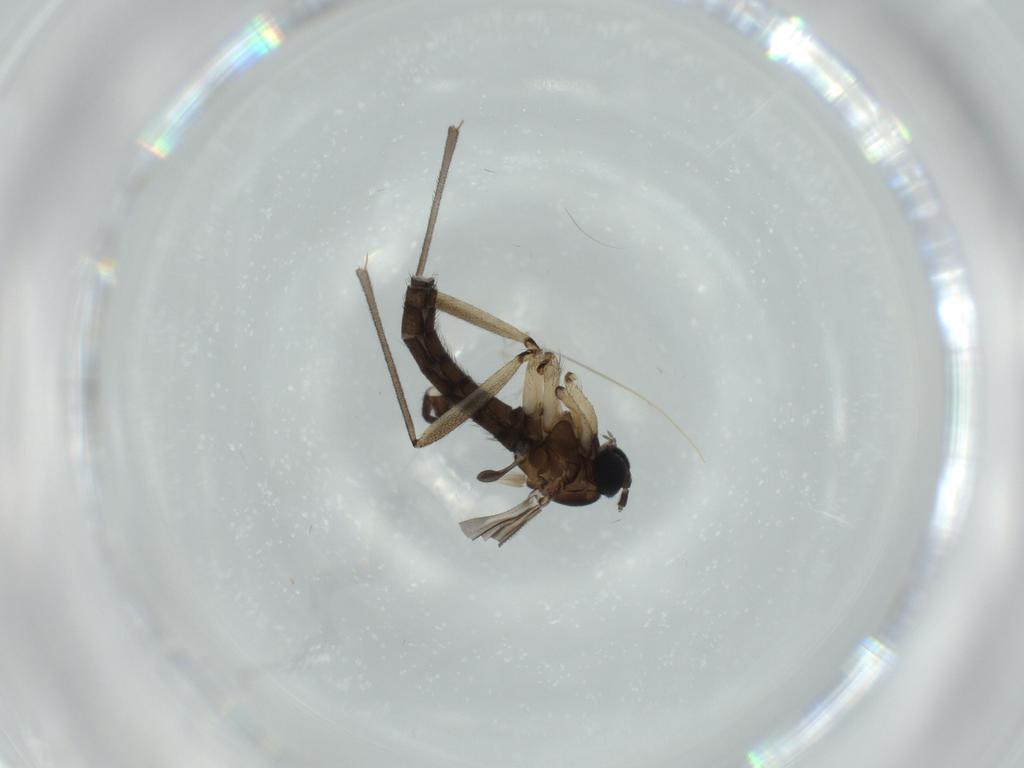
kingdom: Animalia
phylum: Arthropoda
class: Insecta
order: Diptera
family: Sciaridae
